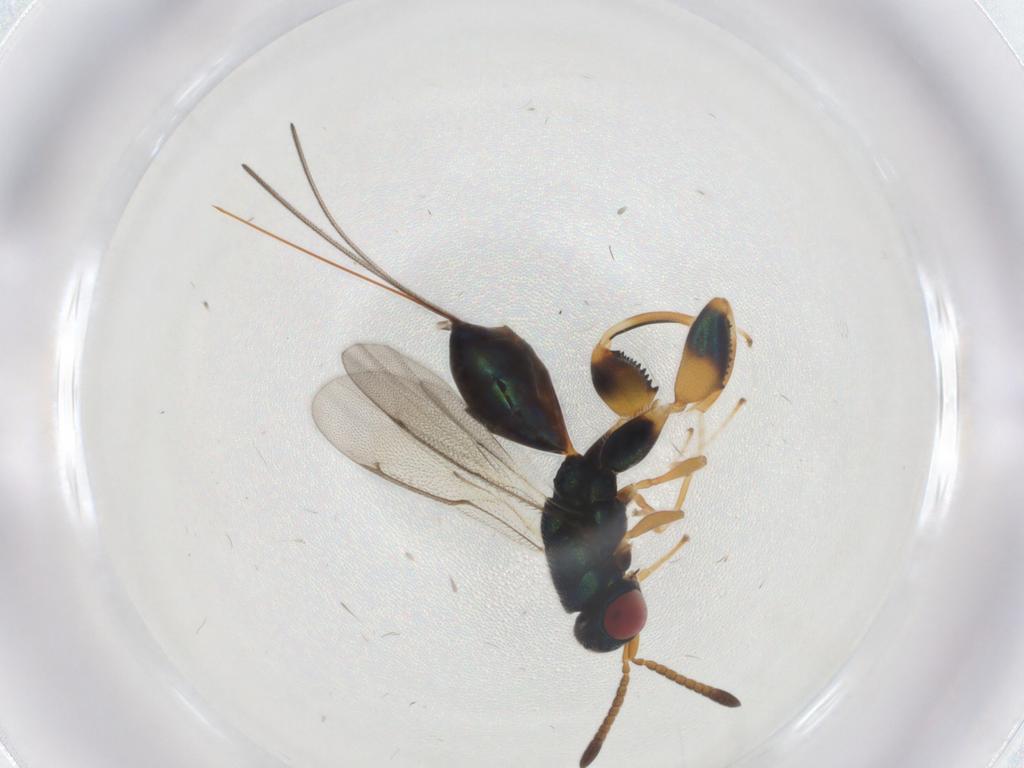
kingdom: Animalia
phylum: Arthropoda
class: Insecta
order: Hymenoptera
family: Torymidae
